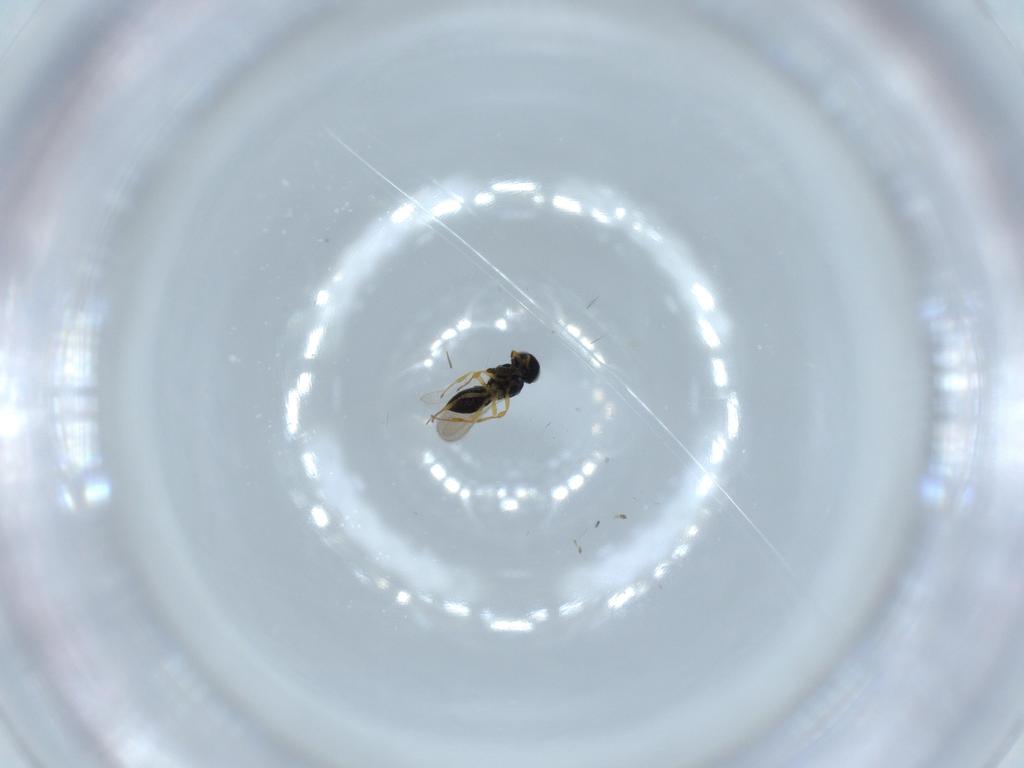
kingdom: Animalia
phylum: Arthropoda
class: Insecta
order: Hymenoptera
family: Scelionidae
